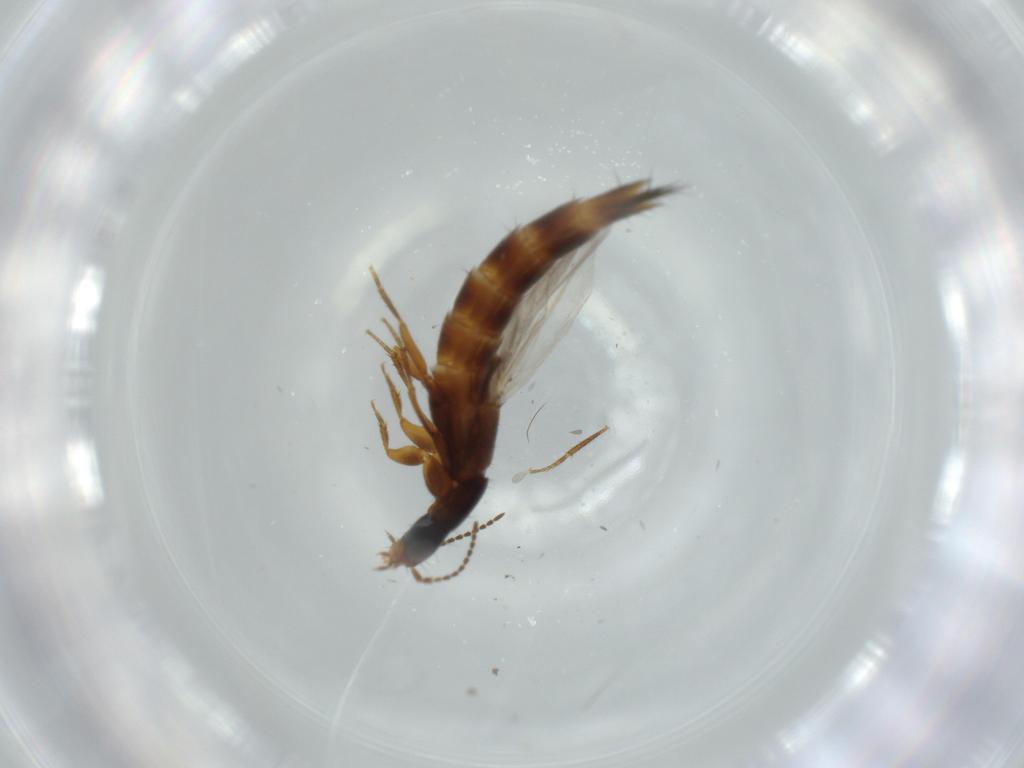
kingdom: Animalia
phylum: Arthropoda
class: Insecta
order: Coleoptera
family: Chrysomelidae
